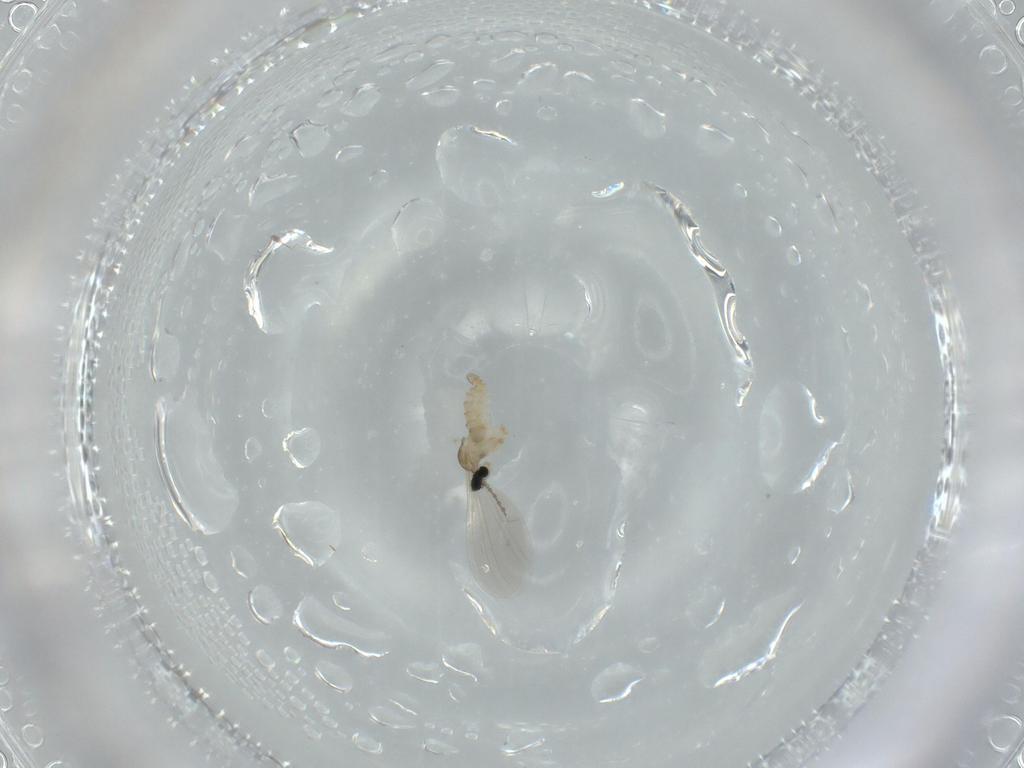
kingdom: Animalia
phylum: Arthropoda
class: Insecta
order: Diptera
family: Cecidomyiidae
